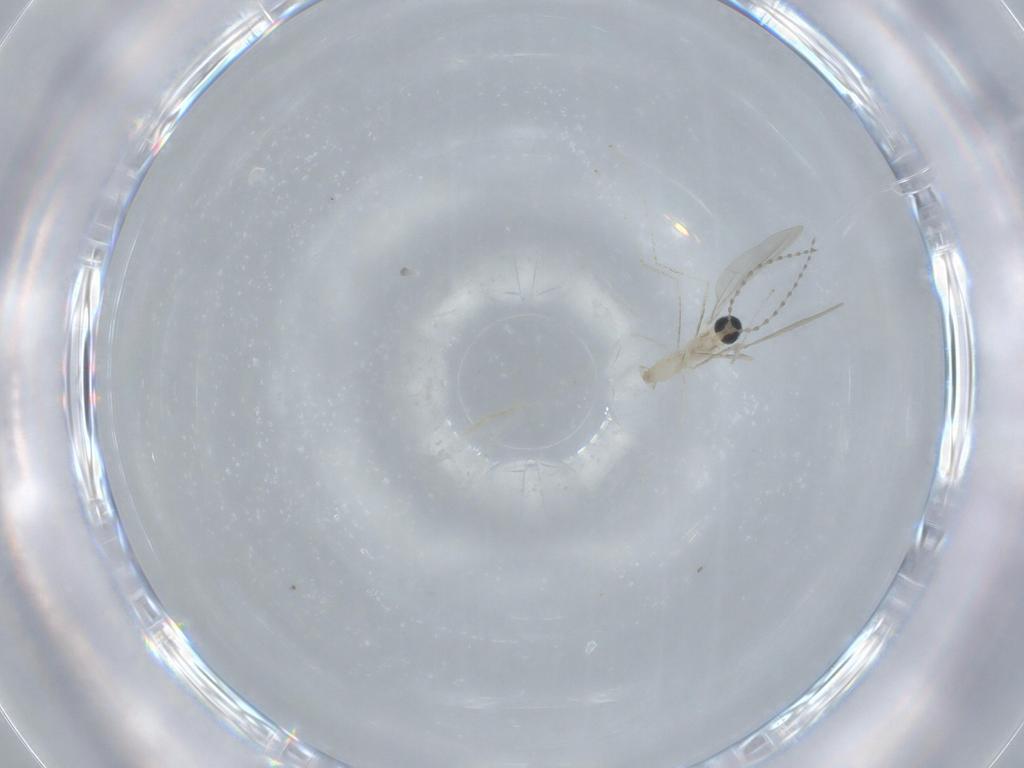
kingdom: Animalia
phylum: Arthropoda
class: Insecta
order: Diptera
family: Cecidomyiidae
